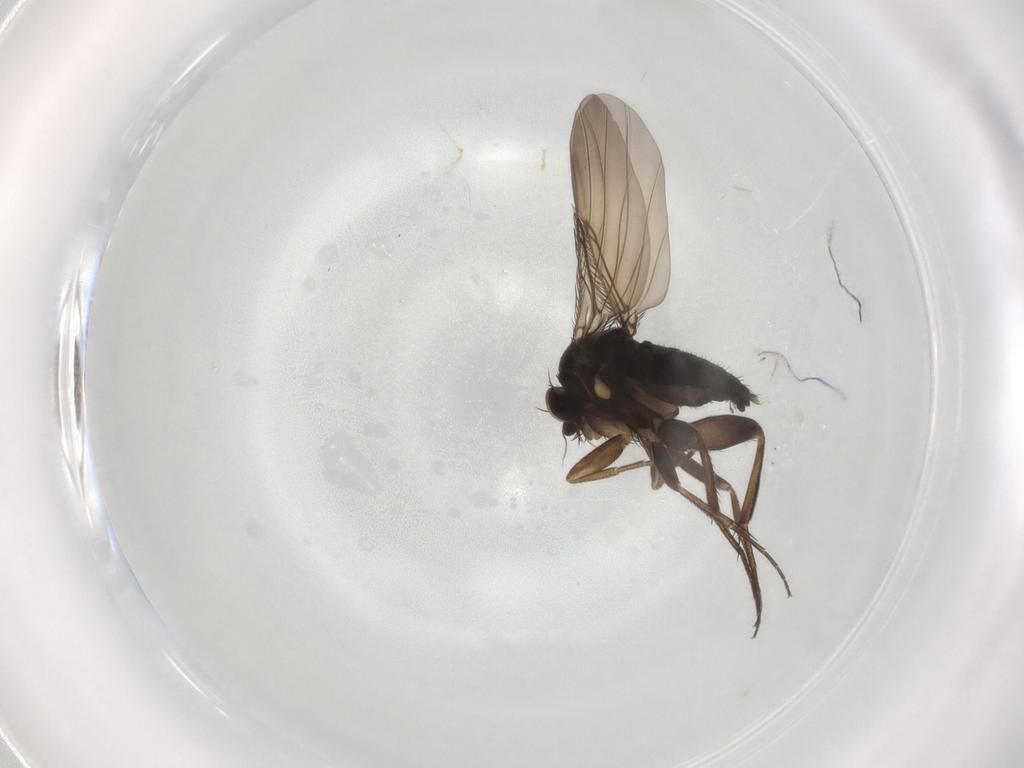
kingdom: Animalia
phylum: Arthropoda
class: Insecta
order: Diptera
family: Phoridae
